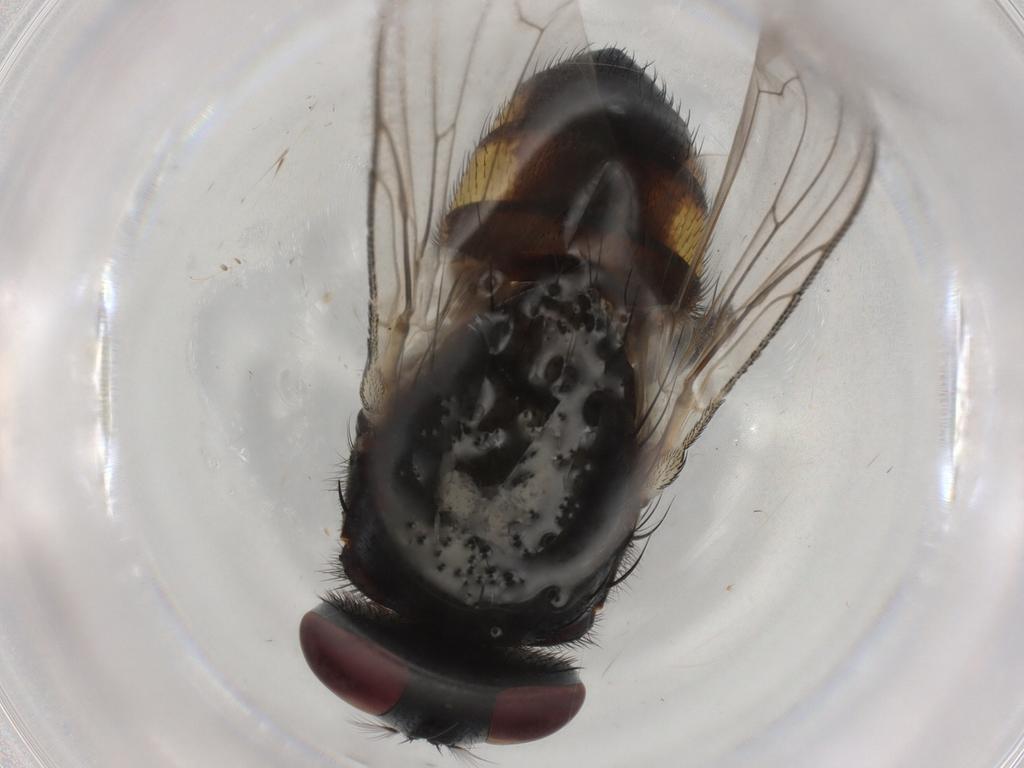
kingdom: Animalia
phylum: Arthropoda
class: Insecta
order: Diptera
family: Muscidae
